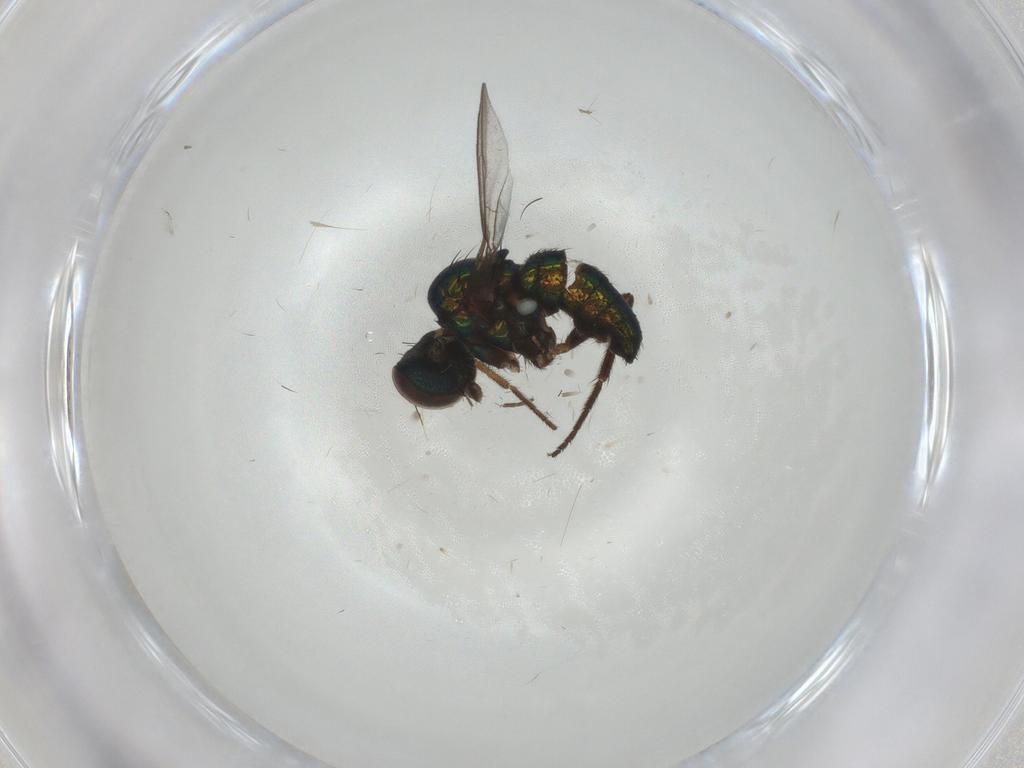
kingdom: Animalia
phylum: Arthropoda
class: Insecta
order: Diptera
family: Dolichopodidae
